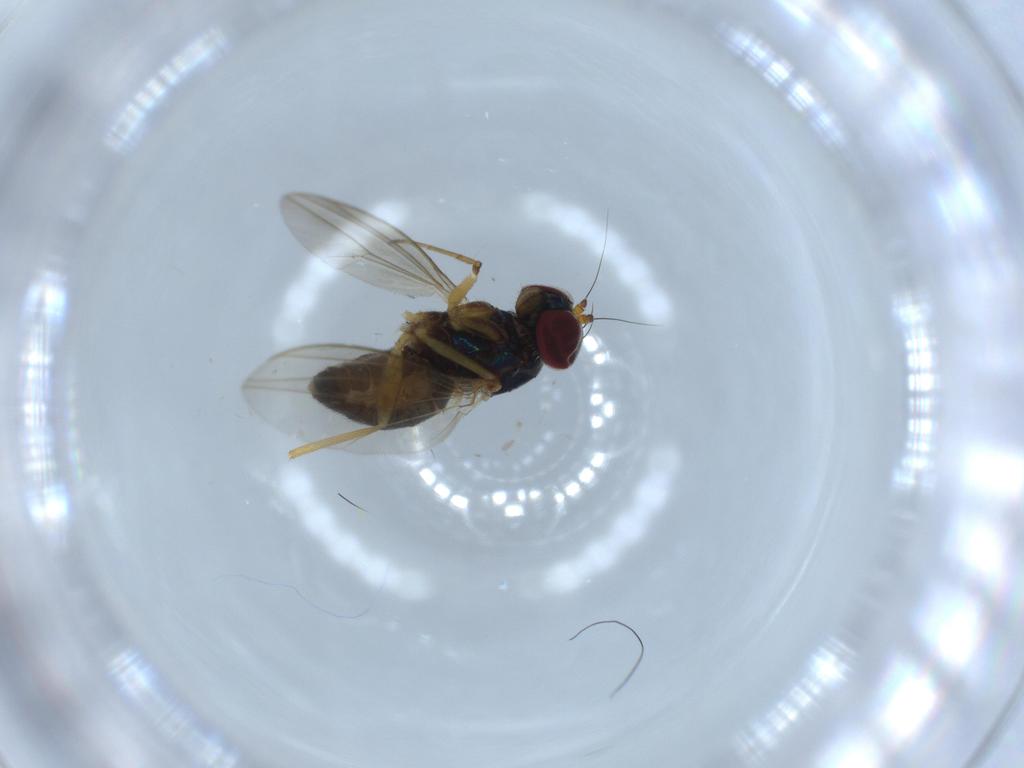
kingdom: Animalia
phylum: Arthropoda
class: Insecta
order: Diptera
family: Dolichopodidae
